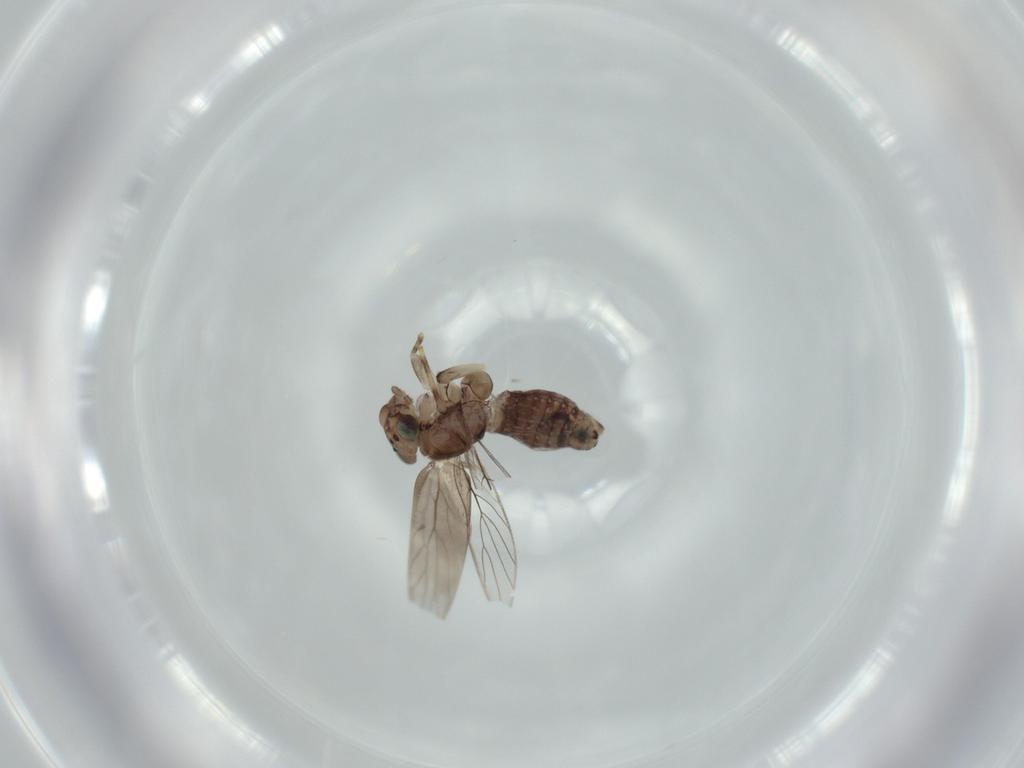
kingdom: Animalia
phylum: Arthropoda
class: Insecta
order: Psocodea
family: Lepidopsocidae
